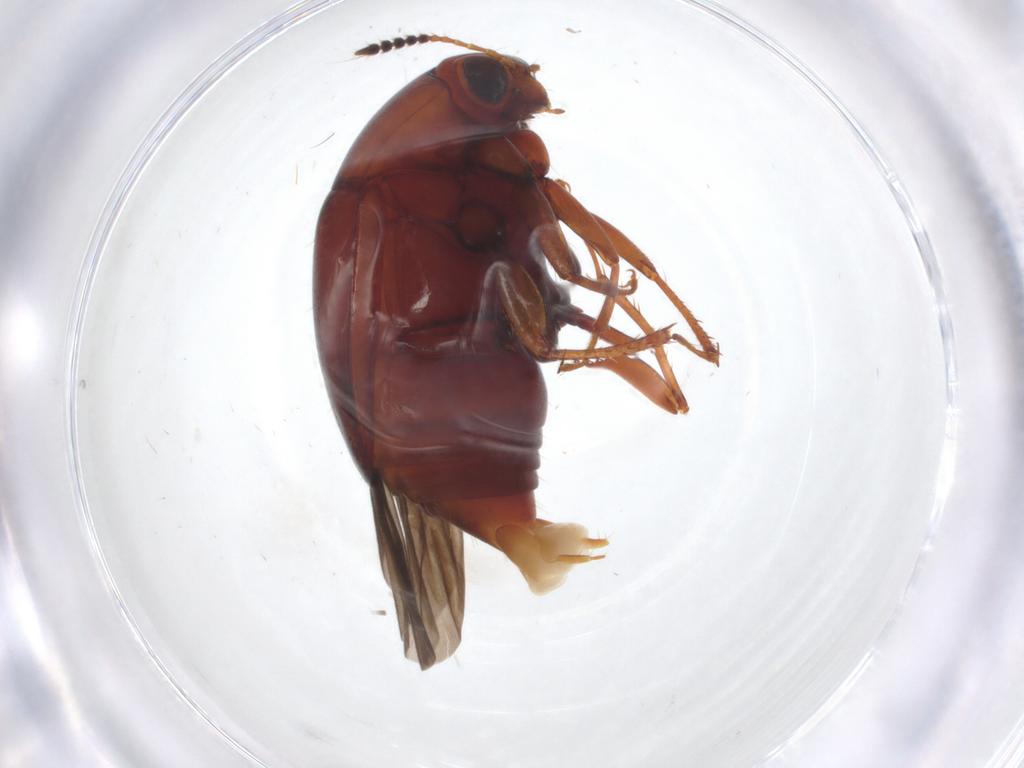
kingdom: Animalia
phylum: Arthropoda
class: Insecta
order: Coleoptera
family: Staphylinidae
